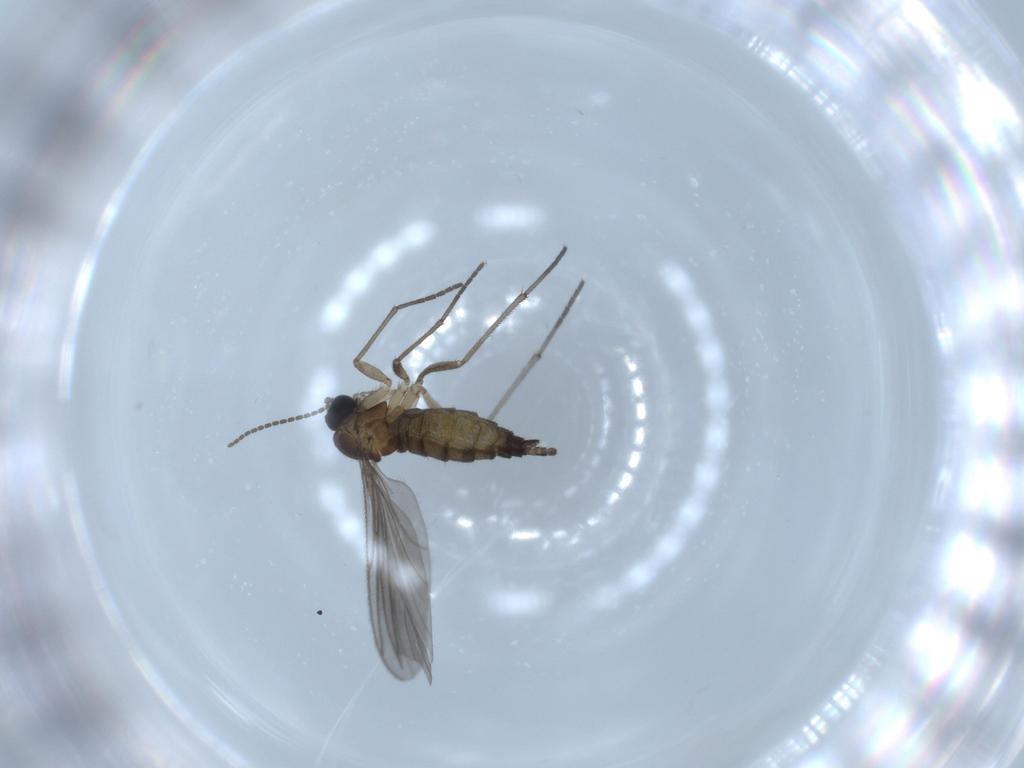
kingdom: Animalia
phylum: Arthropoda
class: Insecta
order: Diptera
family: Sciaridae
